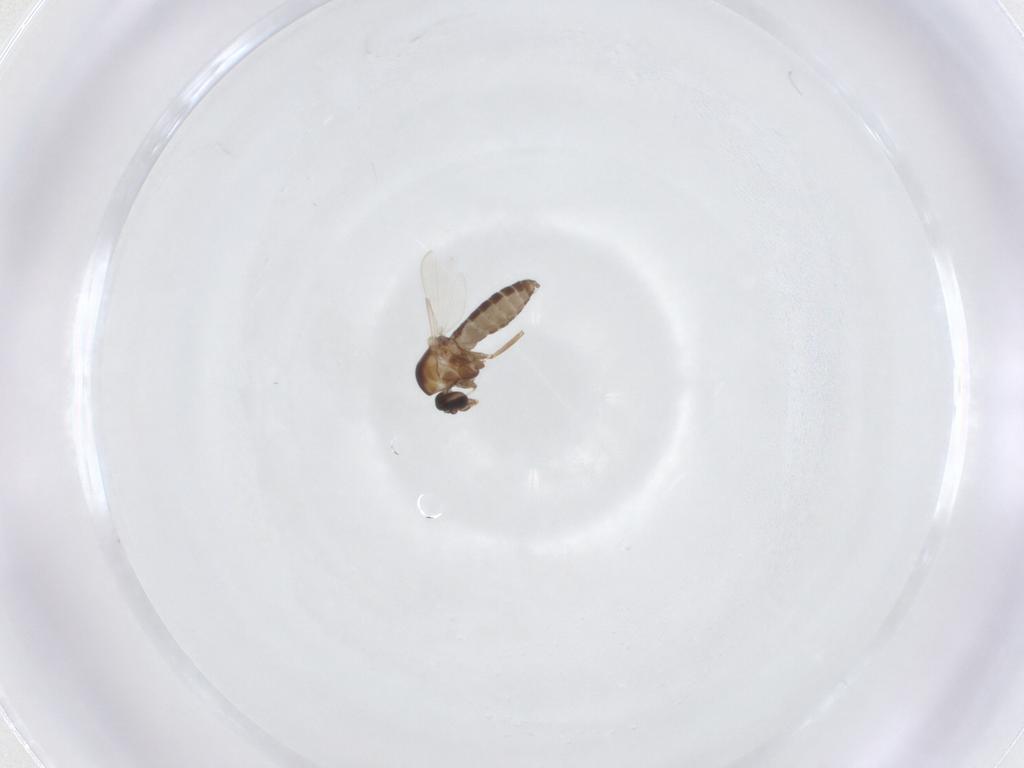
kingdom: Animalia
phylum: Arthropoda
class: Insecta
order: Diptera
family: Ceratopogonidae
